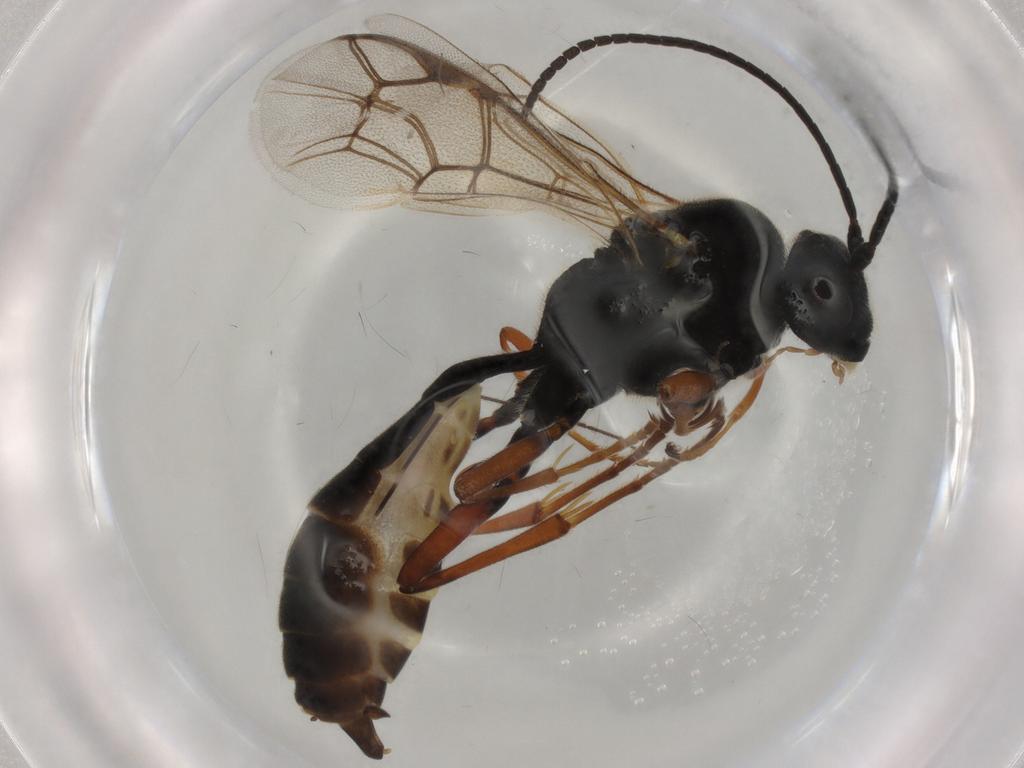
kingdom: Animalia
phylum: Arthropoda
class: Insecta
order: Hymenoptera
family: Ichneumonidae
